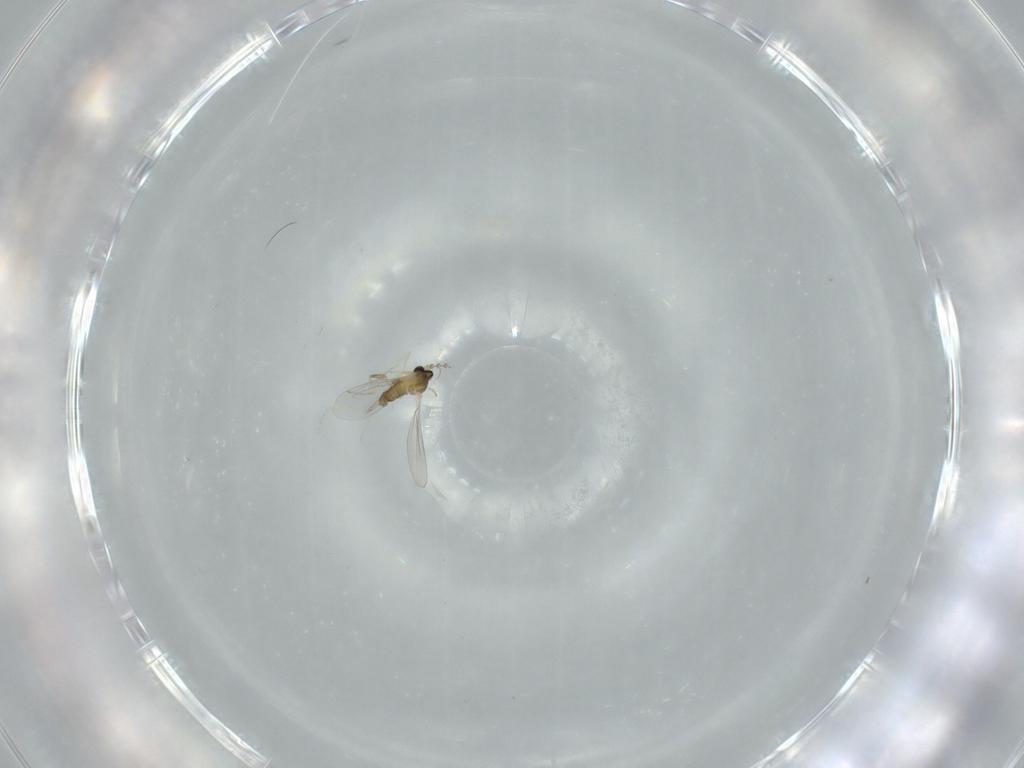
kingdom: Animalia
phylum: Arthropoda
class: Insecta
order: Diptera
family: Cecidomyiidae
